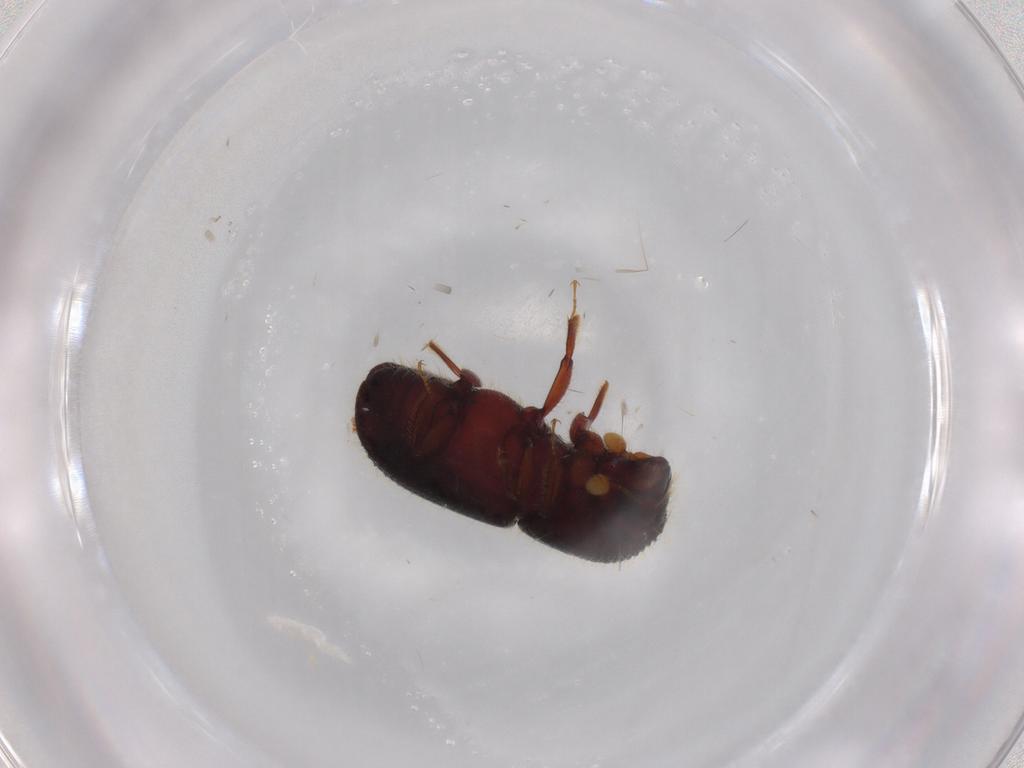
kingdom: Animalia
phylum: Arthropoda
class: Insecta
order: Coleoptera
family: Curculionidae
